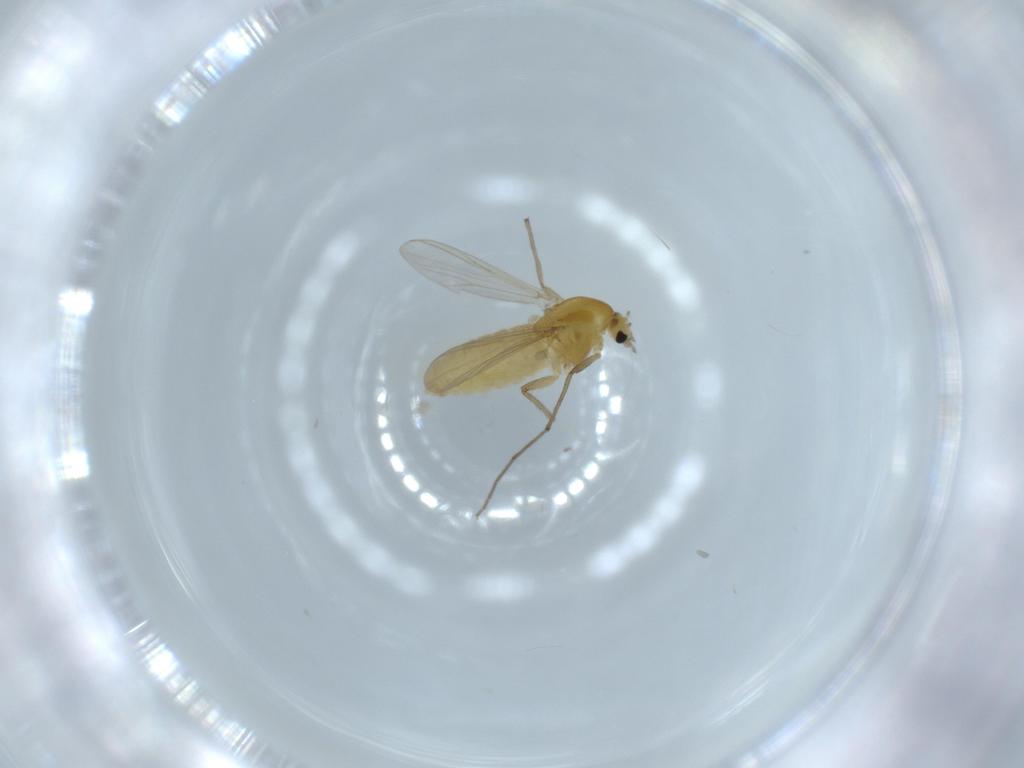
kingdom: Animalia
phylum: Arthropoda
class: Insecta
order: Diptera
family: Chironomidae
